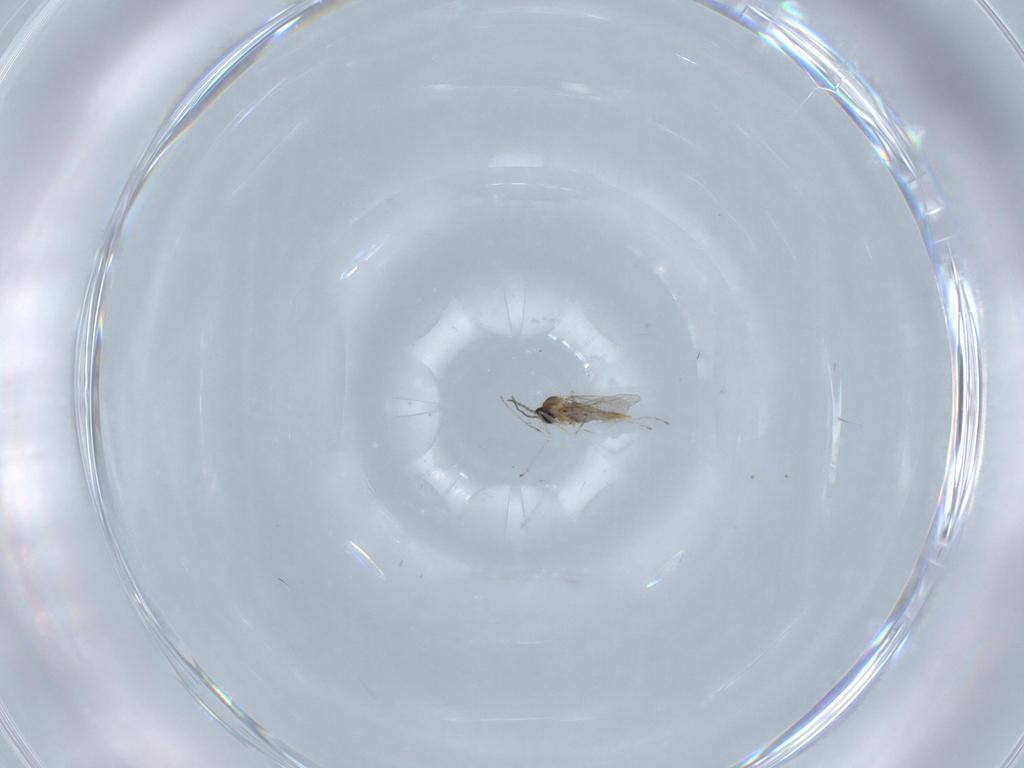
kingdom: Animalia
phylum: Arthropoda
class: Insecta
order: Diptera
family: Cecidomyiidae
